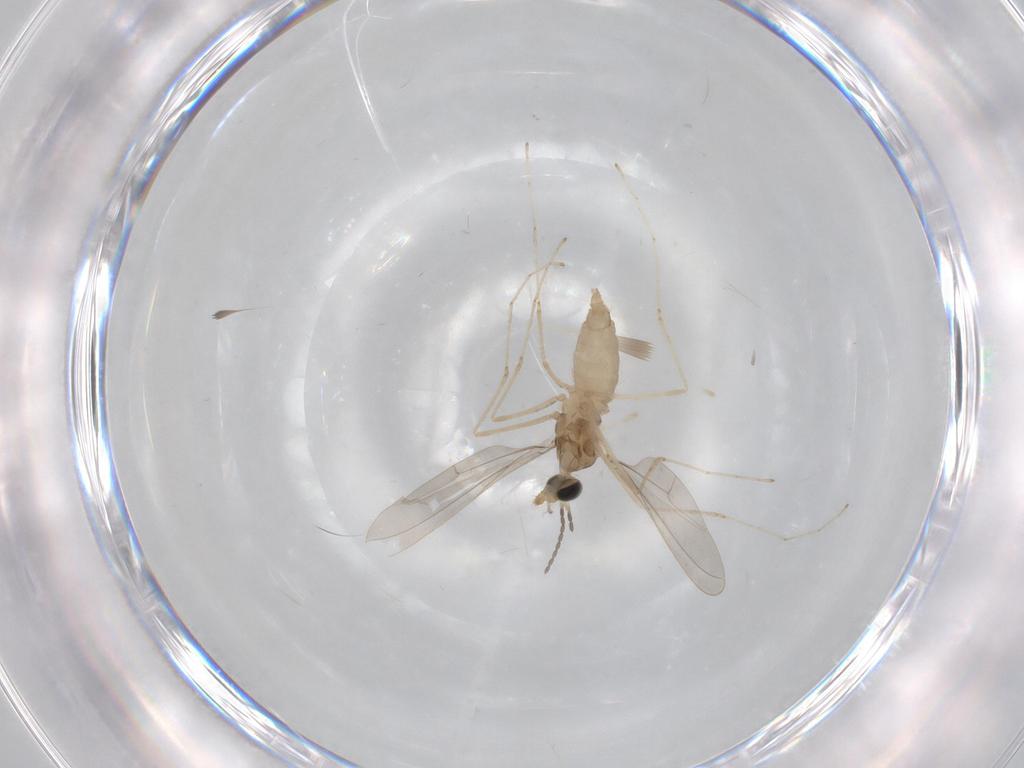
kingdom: Animalia
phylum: Arthropoda
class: Insecta
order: Diptera
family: Cecidomyiidae
